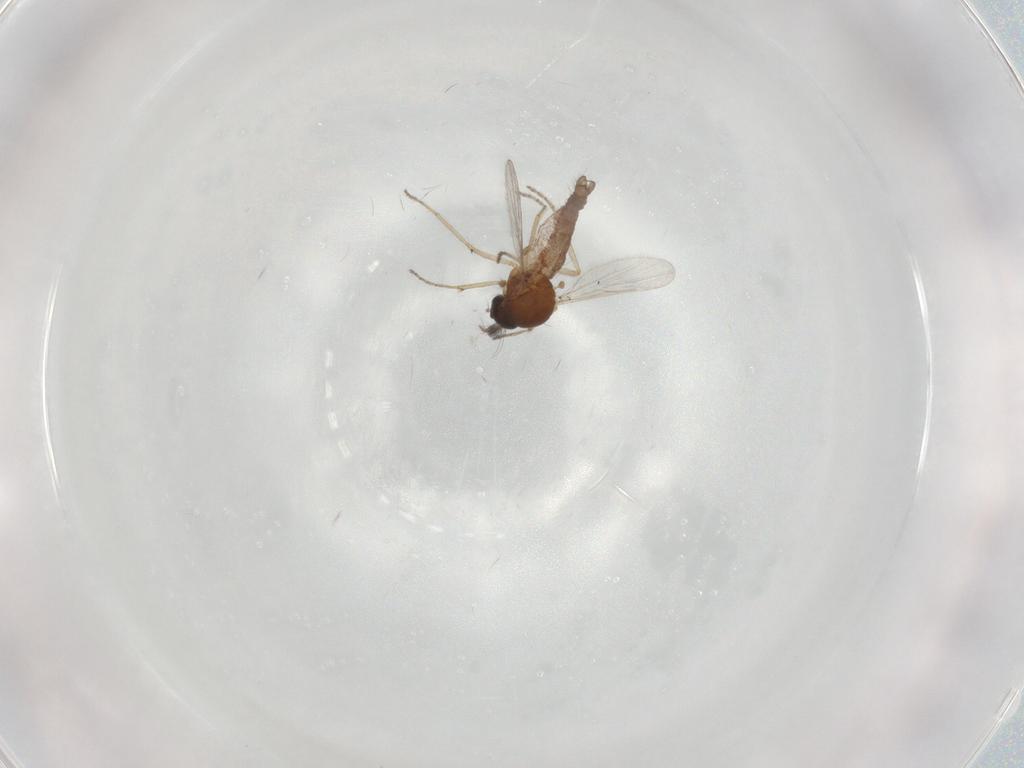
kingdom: Animalia
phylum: Arthropoda
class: Insecta
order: Diptera
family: Ceratopogonidae
